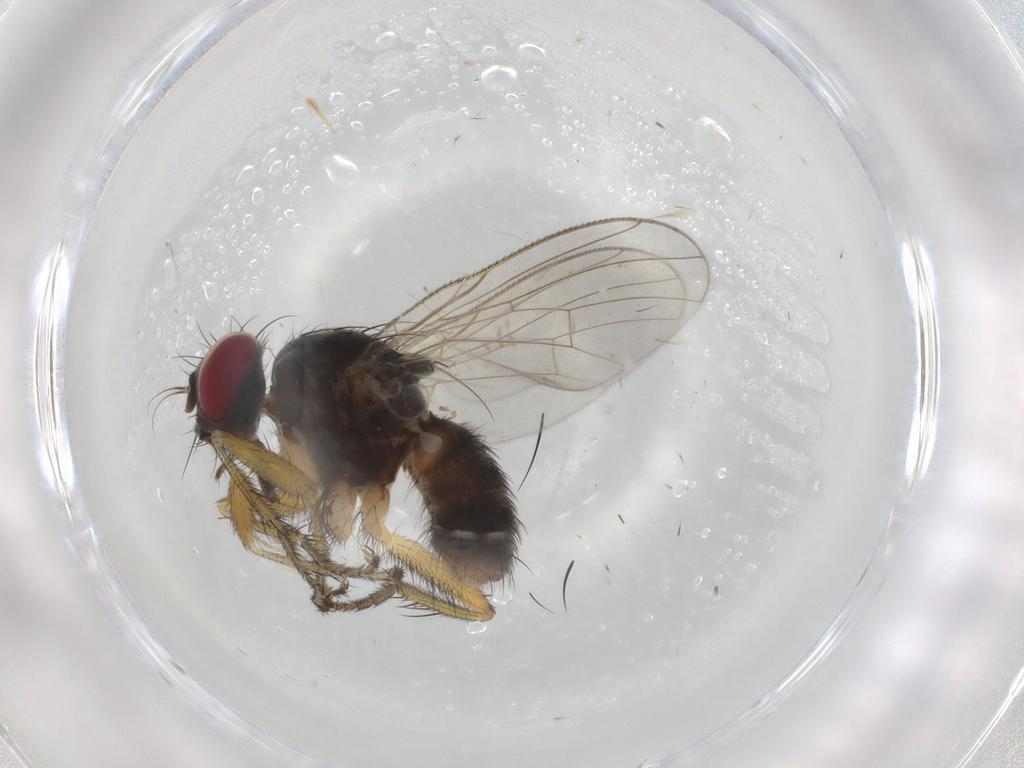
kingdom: Animalia
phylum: Arthropoda
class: Insecta
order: Diptera
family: Muscidae
